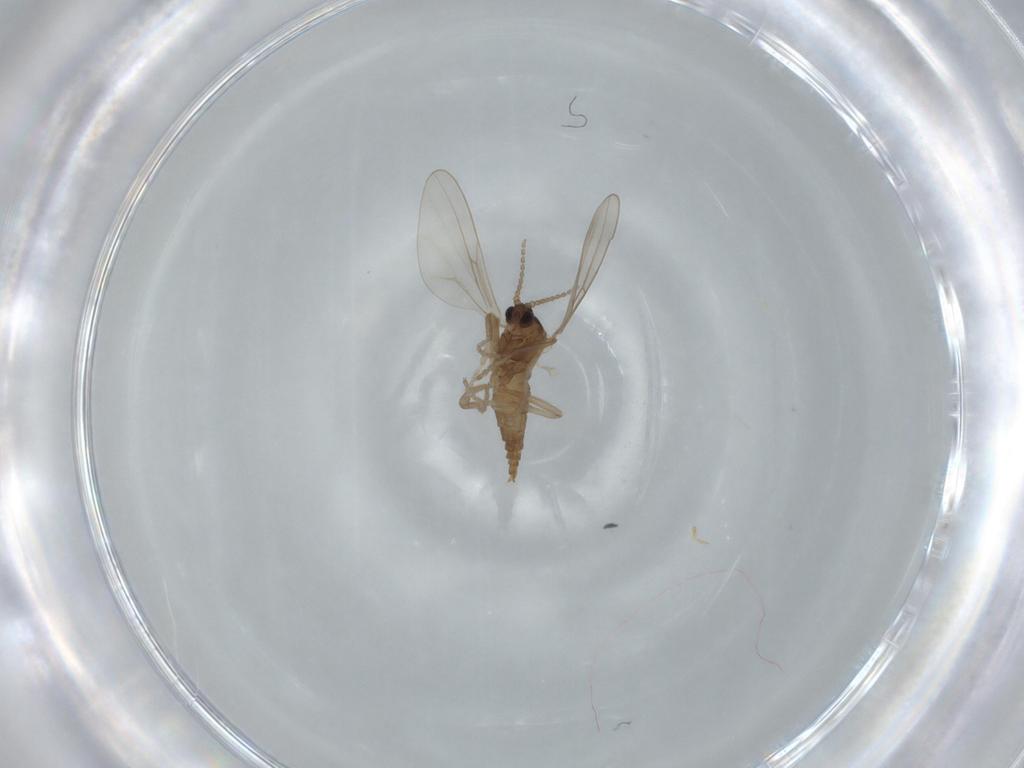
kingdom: Animalia
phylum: Arthropoda
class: Insecta
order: Diptera
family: Cecidomyiidae
